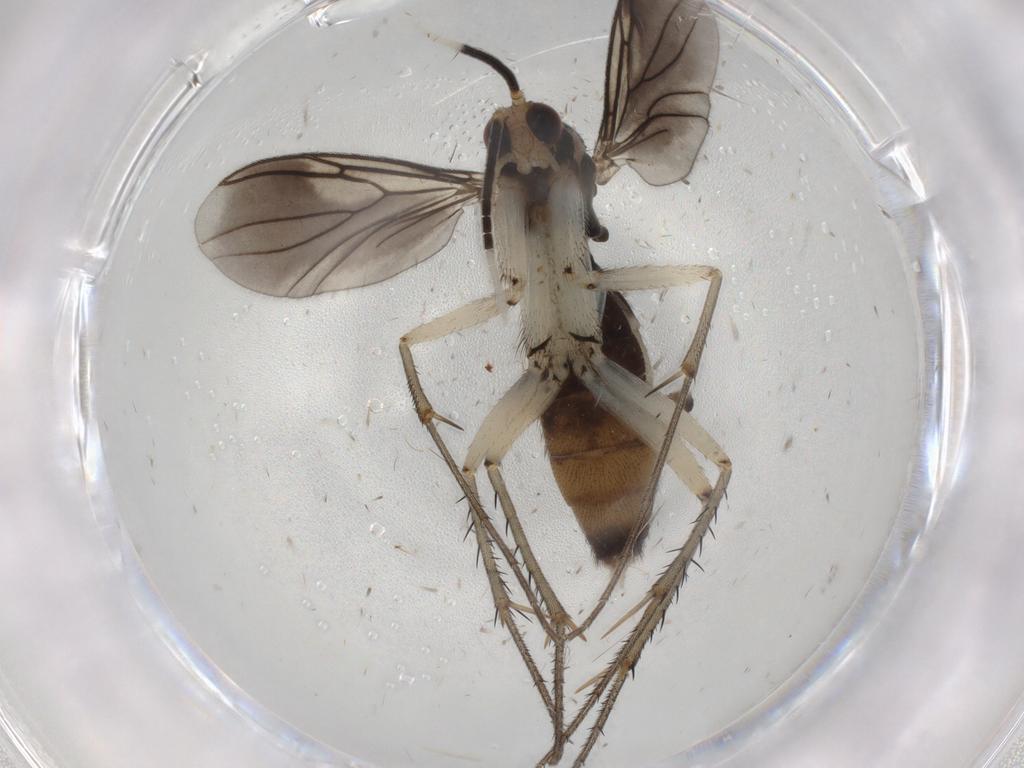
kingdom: Animalia
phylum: Arthropoda
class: Insecta
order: Diptera
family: Mycetophilidae
